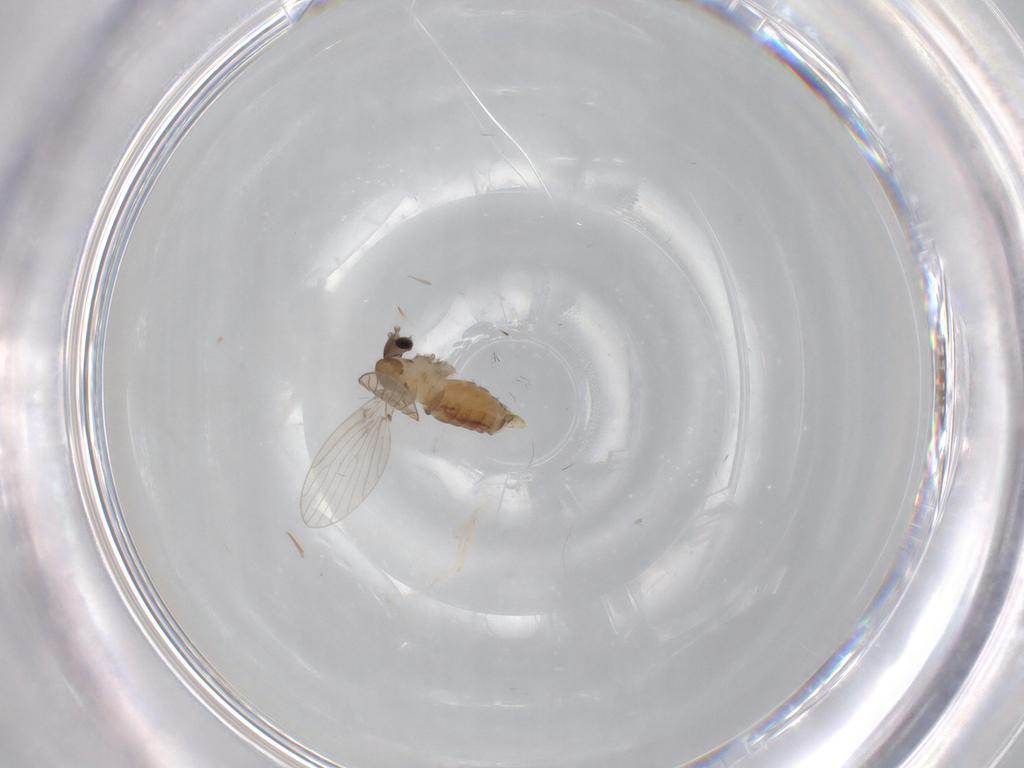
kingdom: Animalia
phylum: Arthropoda
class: Insecta
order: Diptera
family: Psychodidae
